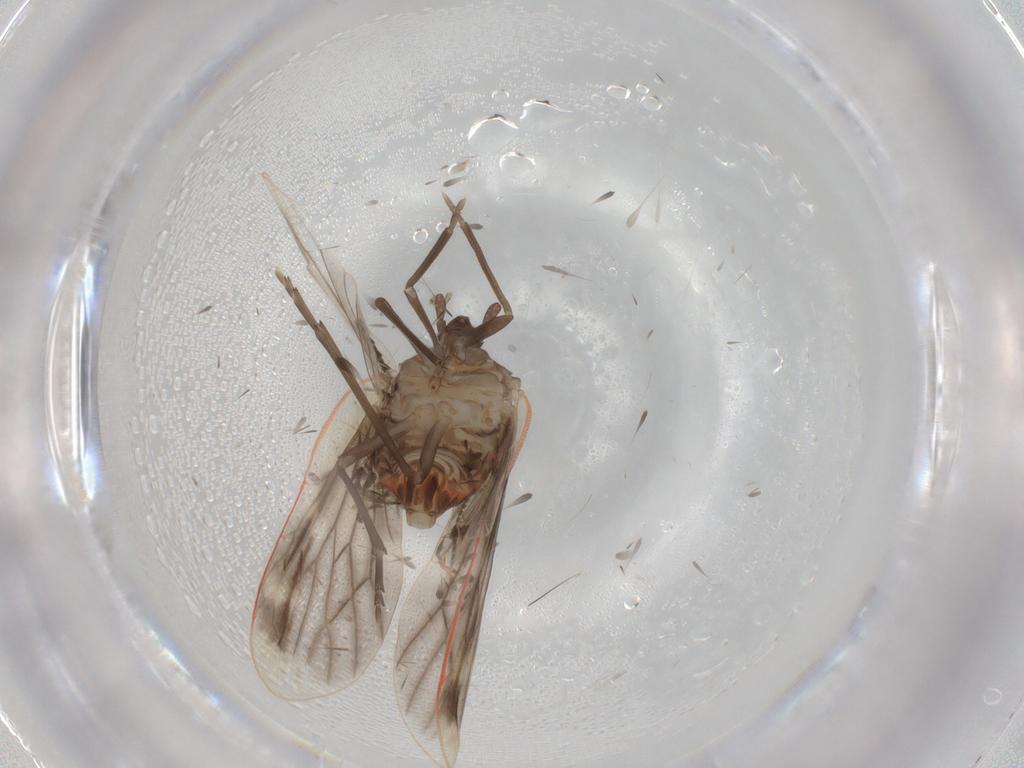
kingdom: Animalia
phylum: Arthropoda
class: Insecta
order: Hemiptera
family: Derbidae
